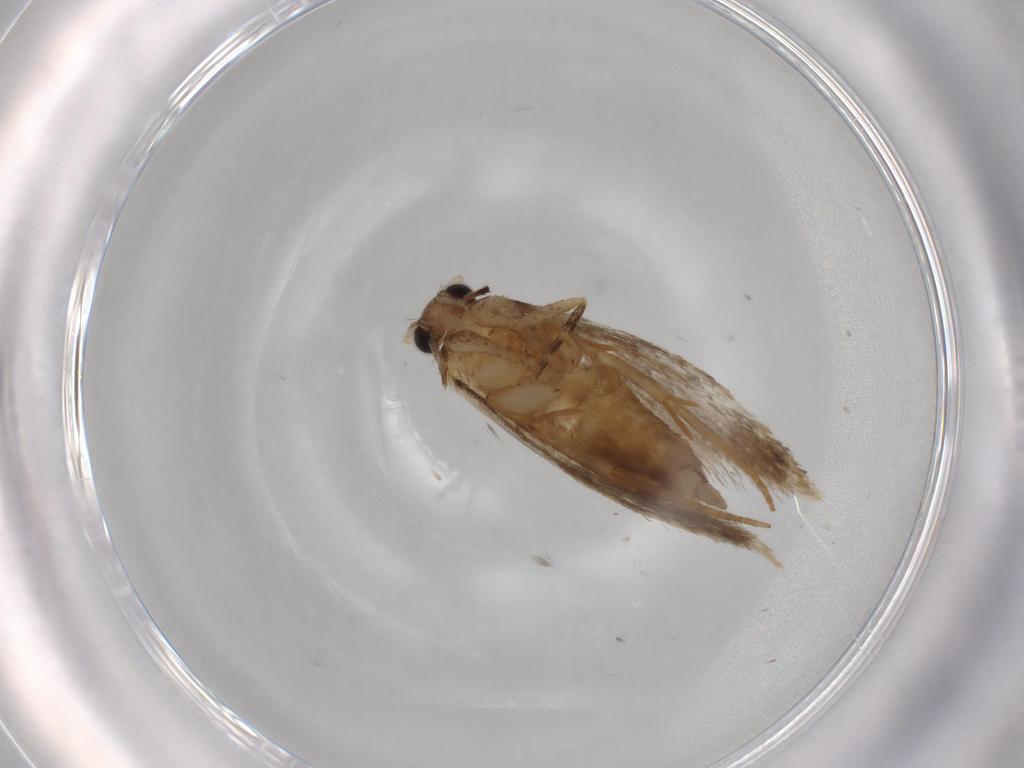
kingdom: Animalia
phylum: Arthropoda
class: Insecta
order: Lepidoptera
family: Tineidae
